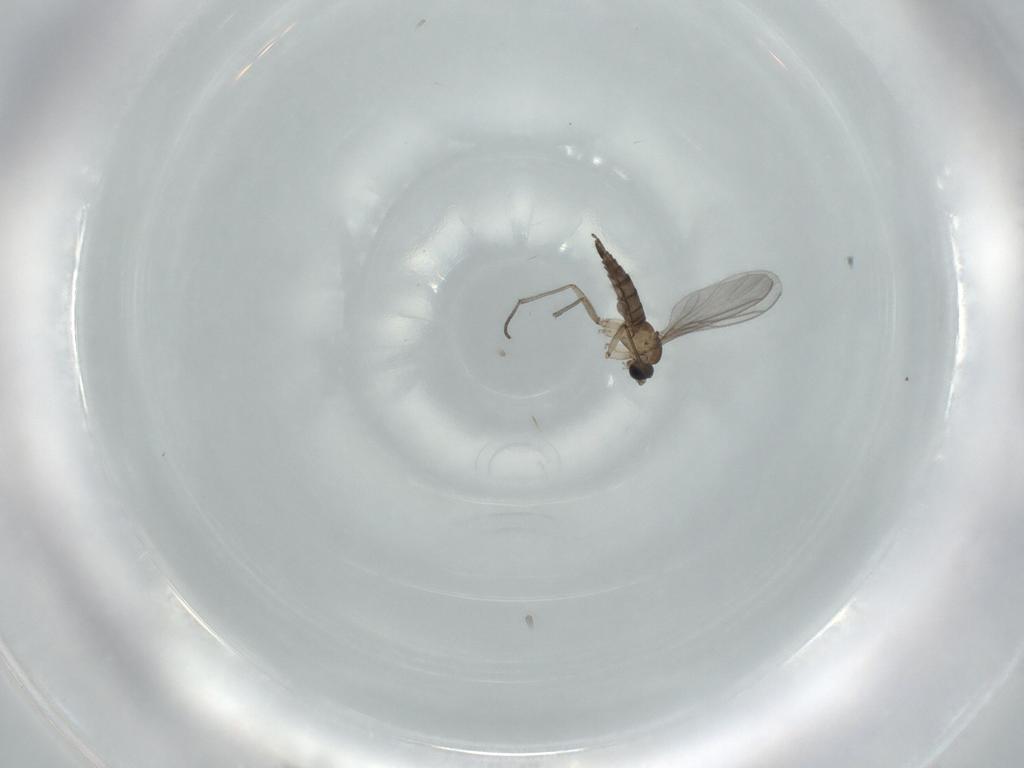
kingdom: Animalia
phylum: Arthropoda
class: Insecta
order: Diptera
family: Sciaridae
